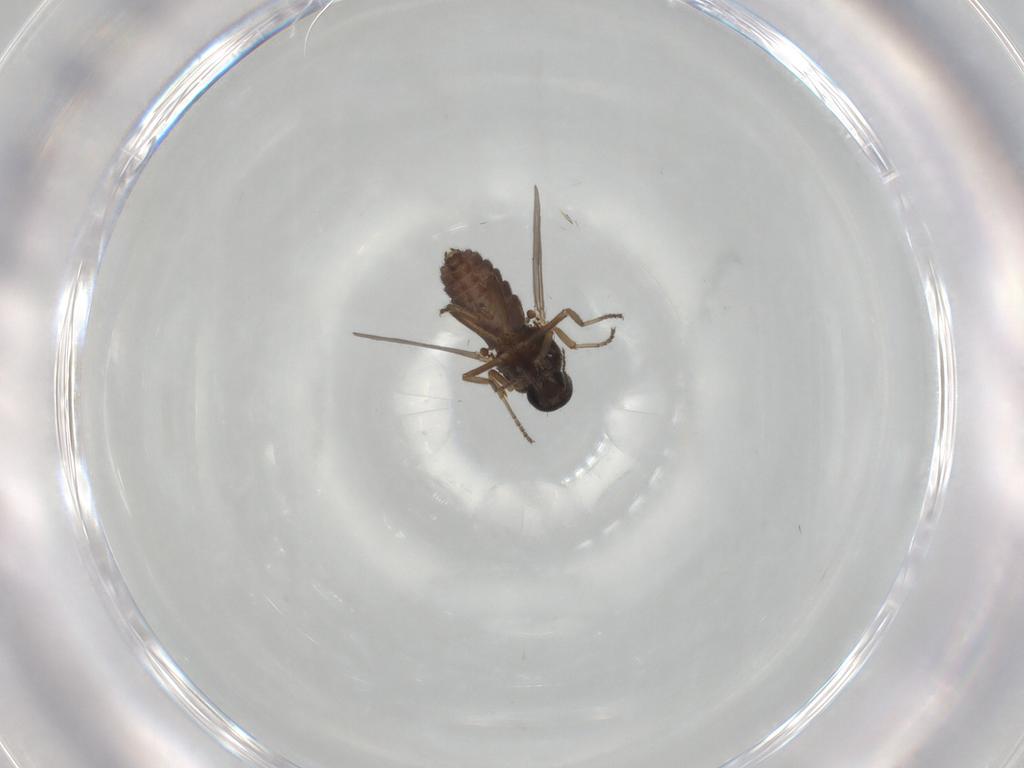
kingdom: Animalia
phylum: Arthropoda
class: Insecta
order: Diptera
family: Ceratopogonidae
